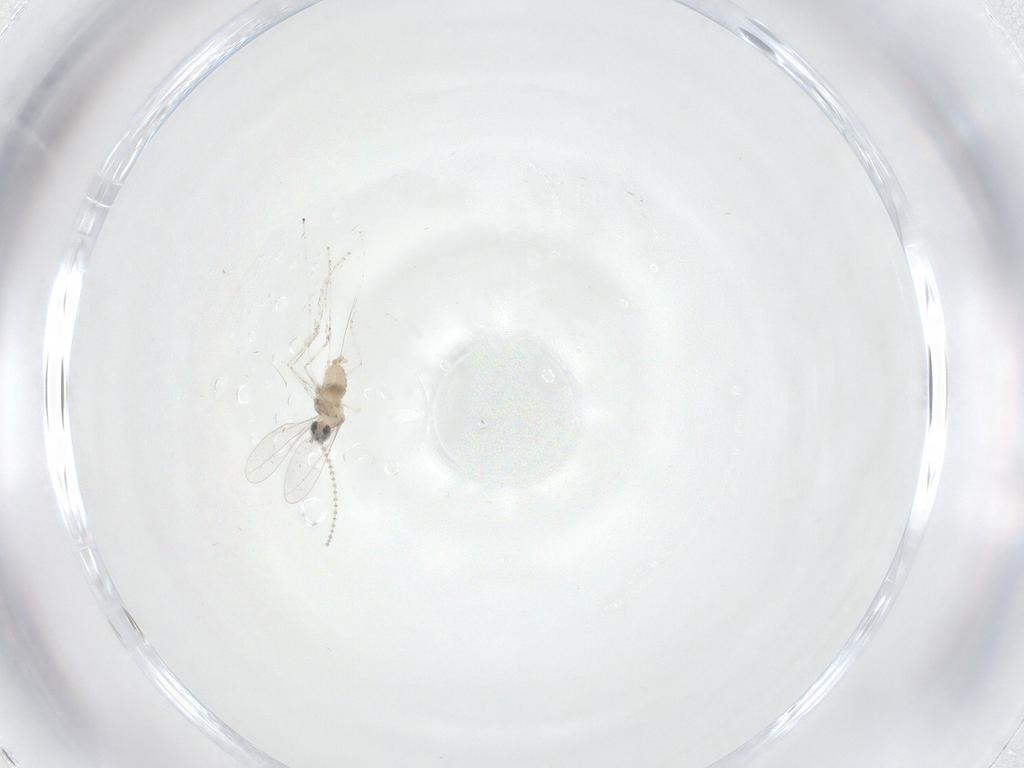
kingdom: Animalia
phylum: Arthropoda
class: Insecta
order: Diptera
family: Cecidomyiidae
